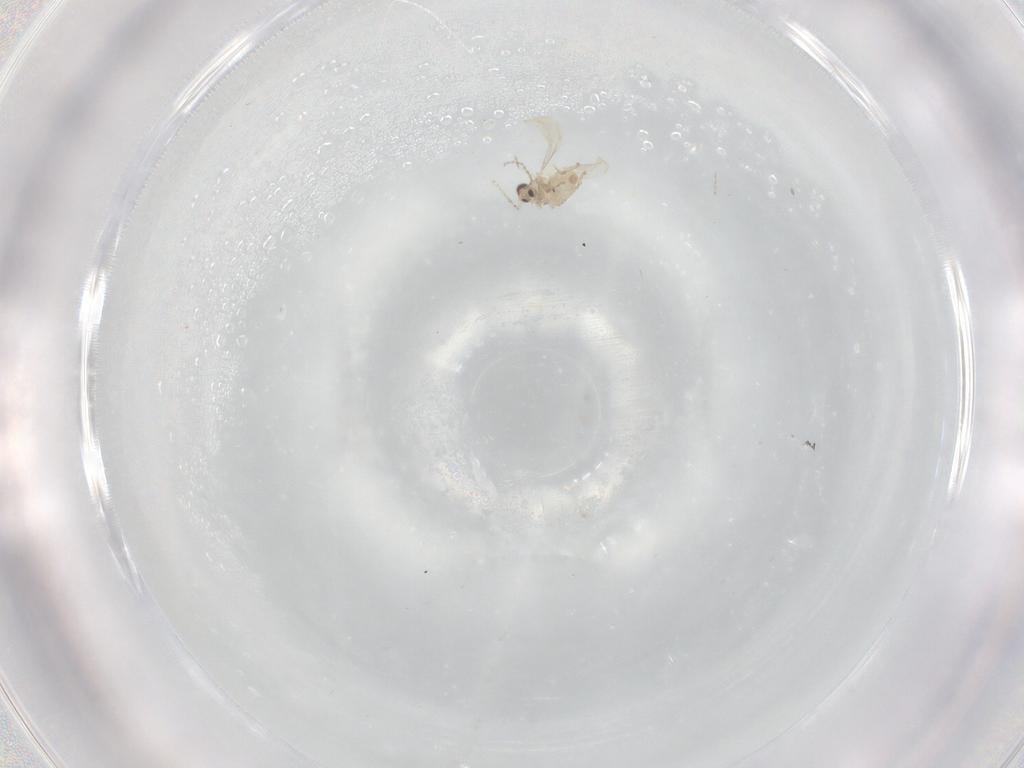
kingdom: Animalia
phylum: Arthropoda
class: Insecta
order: Diptera
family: Cecidomyiidae
